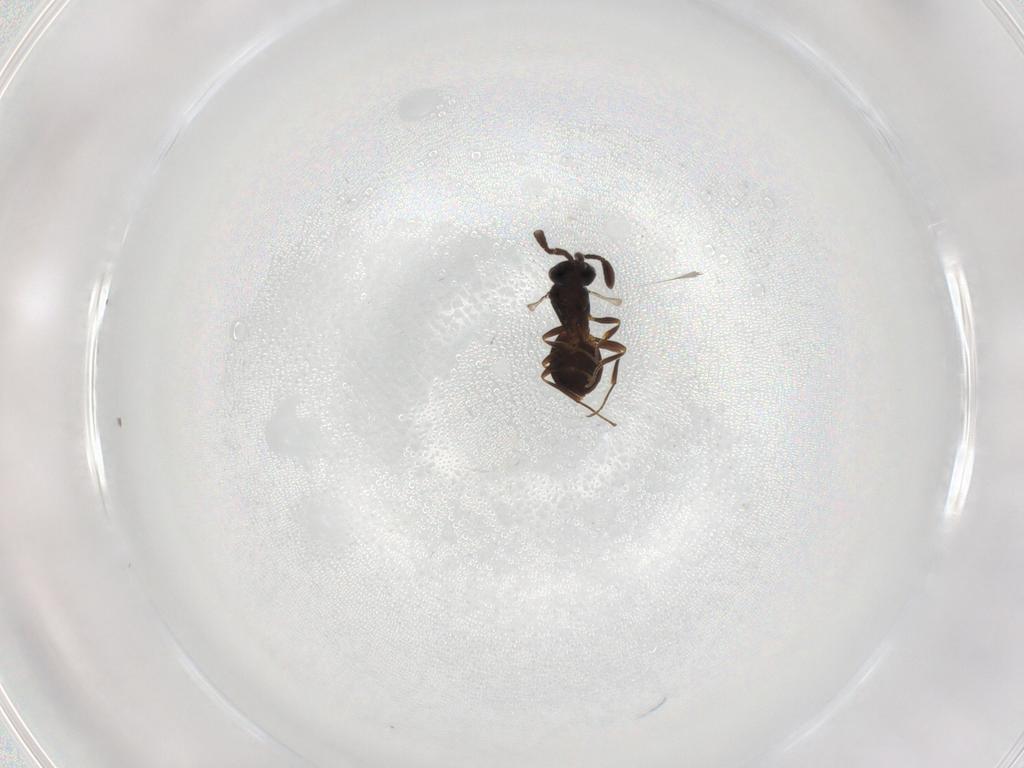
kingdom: Animalia
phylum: Arthropoda
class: Insecta
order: Hymenoptera
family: Scelionidae
